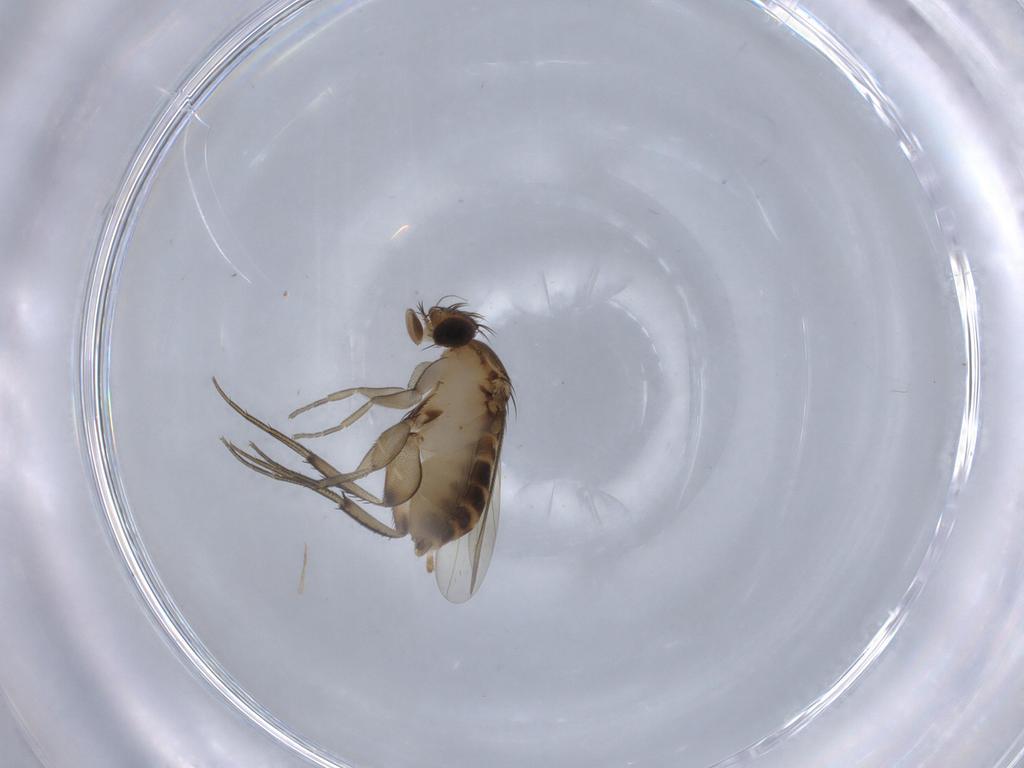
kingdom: Animalia
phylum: Arthropoda
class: Insecta
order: Diptera
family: Phoridae
